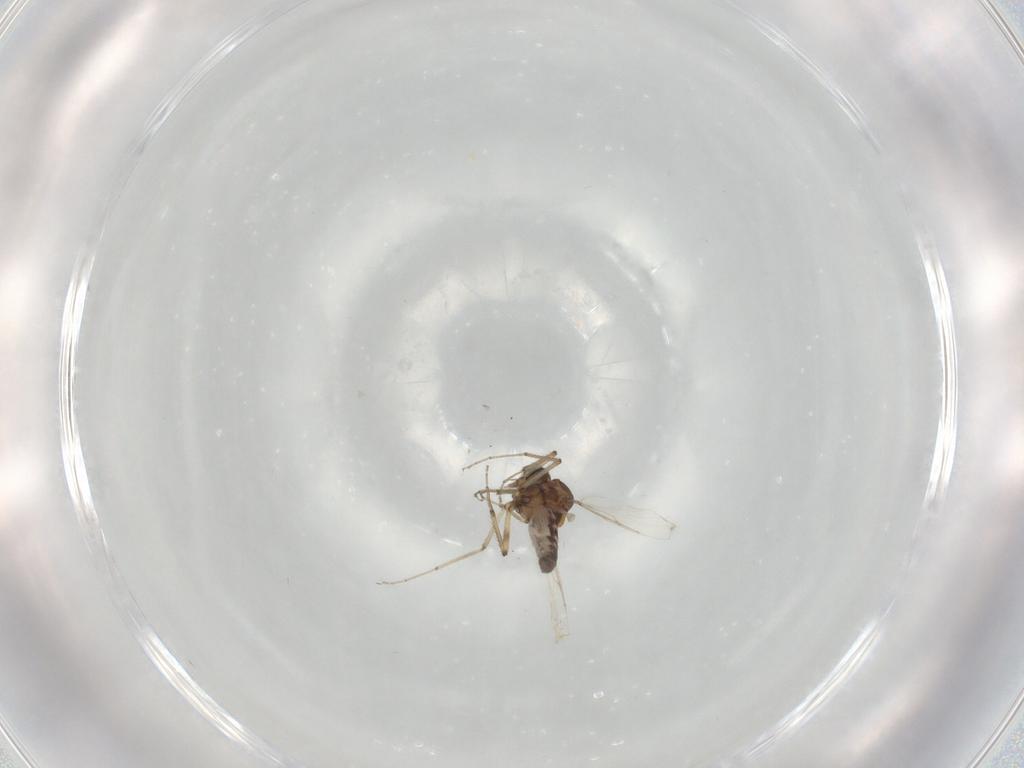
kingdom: Animalia
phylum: Arthropoda
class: Insecta
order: Diptera
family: Ceratopogonidae
